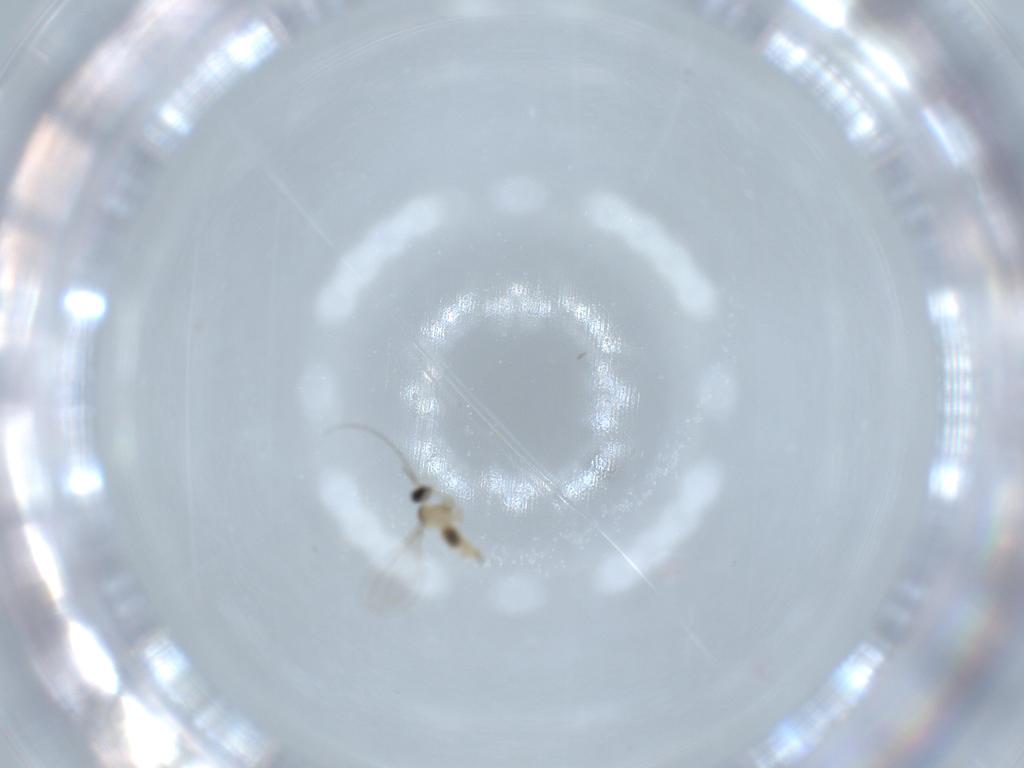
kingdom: Animalia
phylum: Arthropoda
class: Insecta
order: Diptera
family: Cecidomyiidae
